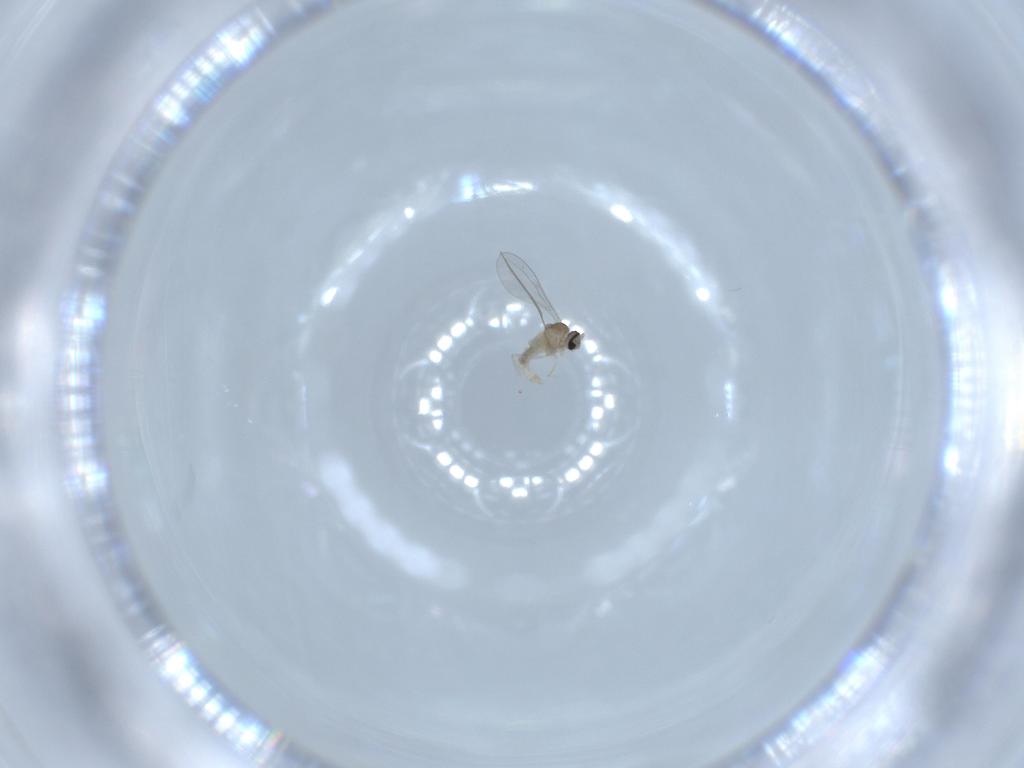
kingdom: Animalia
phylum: Arthropoda
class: Insecta
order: Diptera
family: Cecidomyiidae
